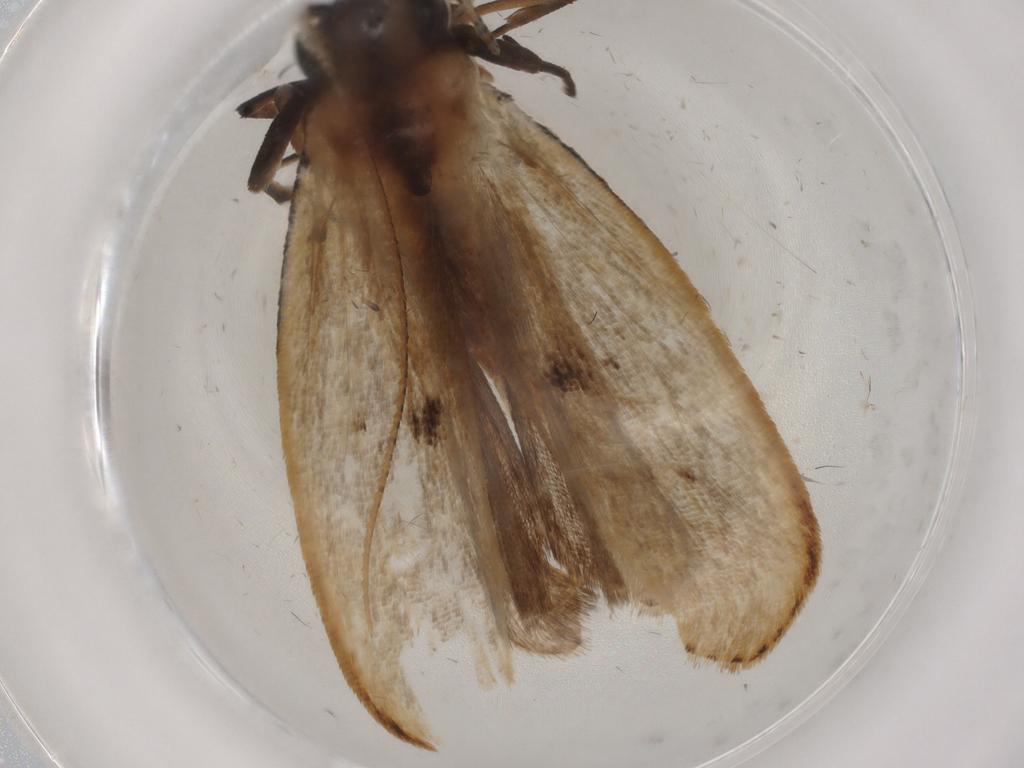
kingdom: Animalia
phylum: Arthropoda
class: Insecta
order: Lepidoptera
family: Gelechiidae
